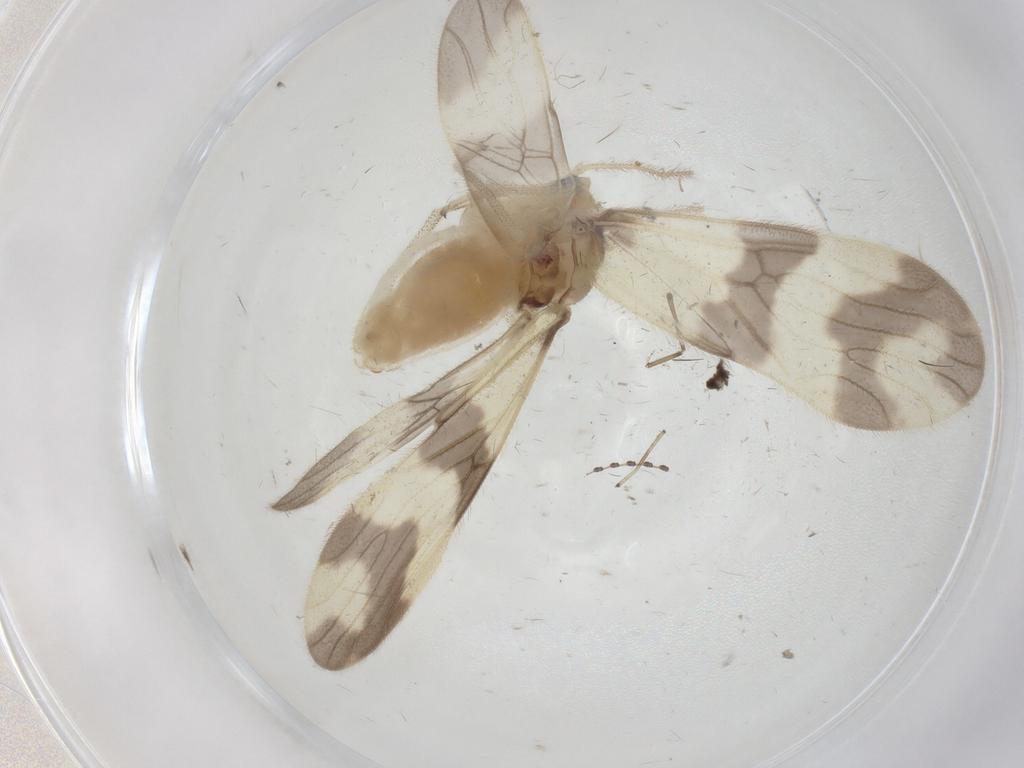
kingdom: Animalia
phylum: Arthropoda
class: Insecta
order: Psocodea
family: Amphipsocidae
